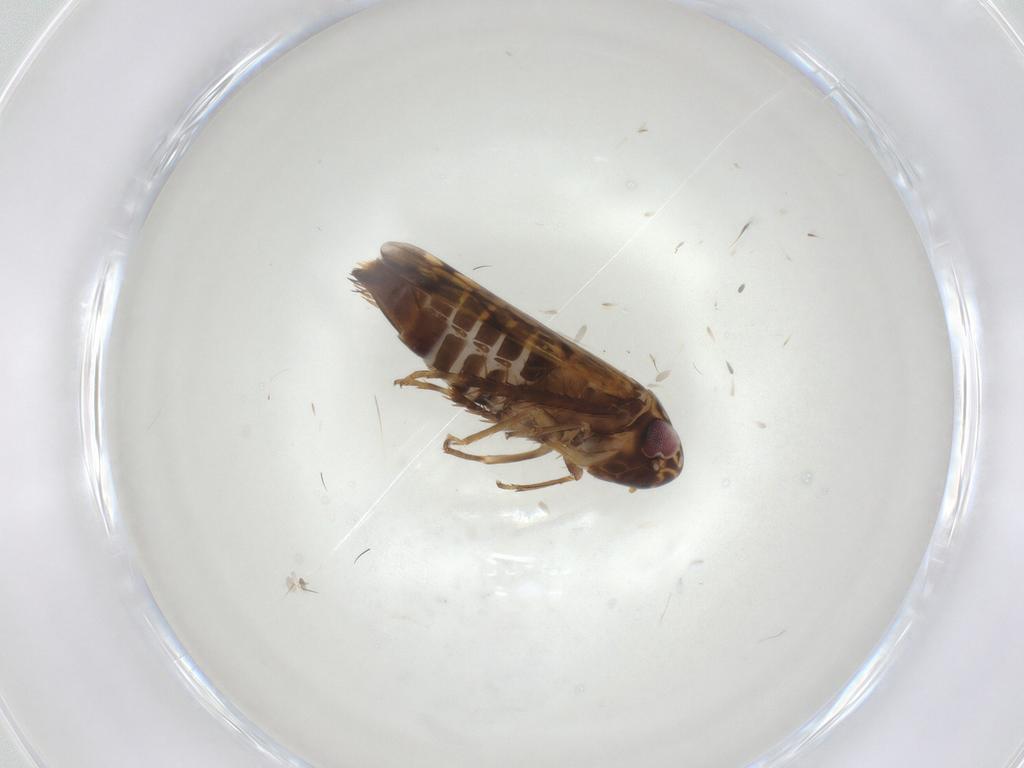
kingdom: Animalia
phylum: Arthropoda
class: Insecta
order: Hemiptera
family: Cicadellidae
